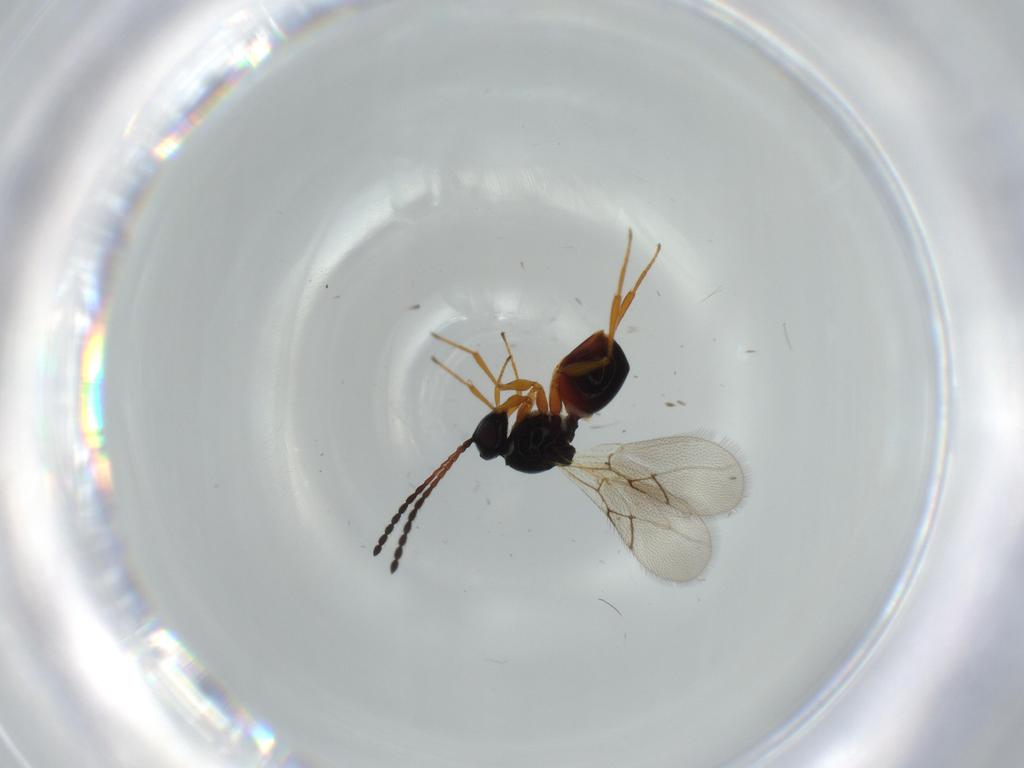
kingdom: Animalia
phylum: Arthropoda
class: Insecta
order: Hymenoptera
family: Figitidae
